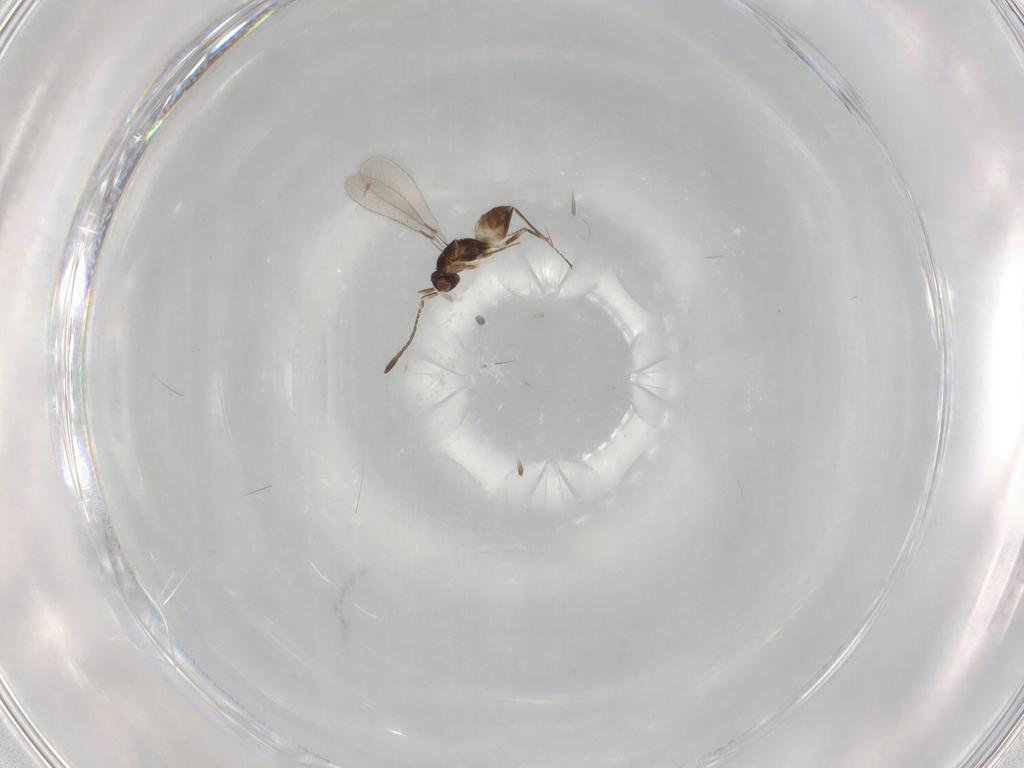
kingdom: Animalia
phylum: Arthropoda
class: Insecta
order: Hymenoptera
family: Mymaridae
